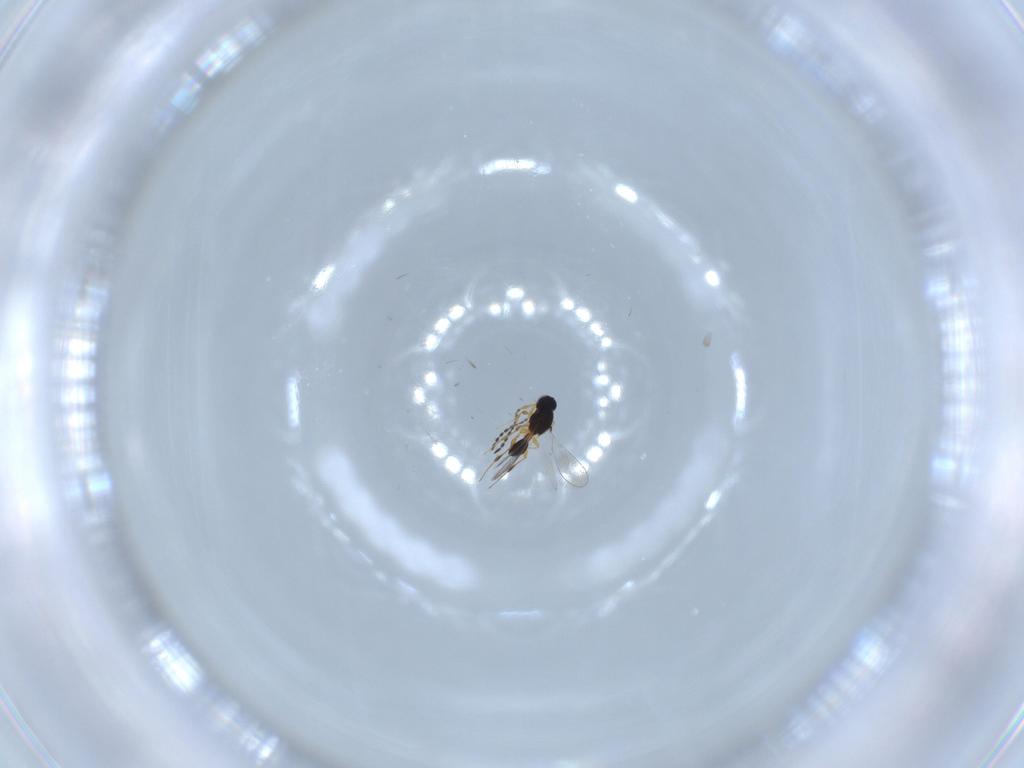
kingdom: Animalia
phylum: Arthropoda
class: Insecta
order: Hymenoptera
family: Platygastridae
